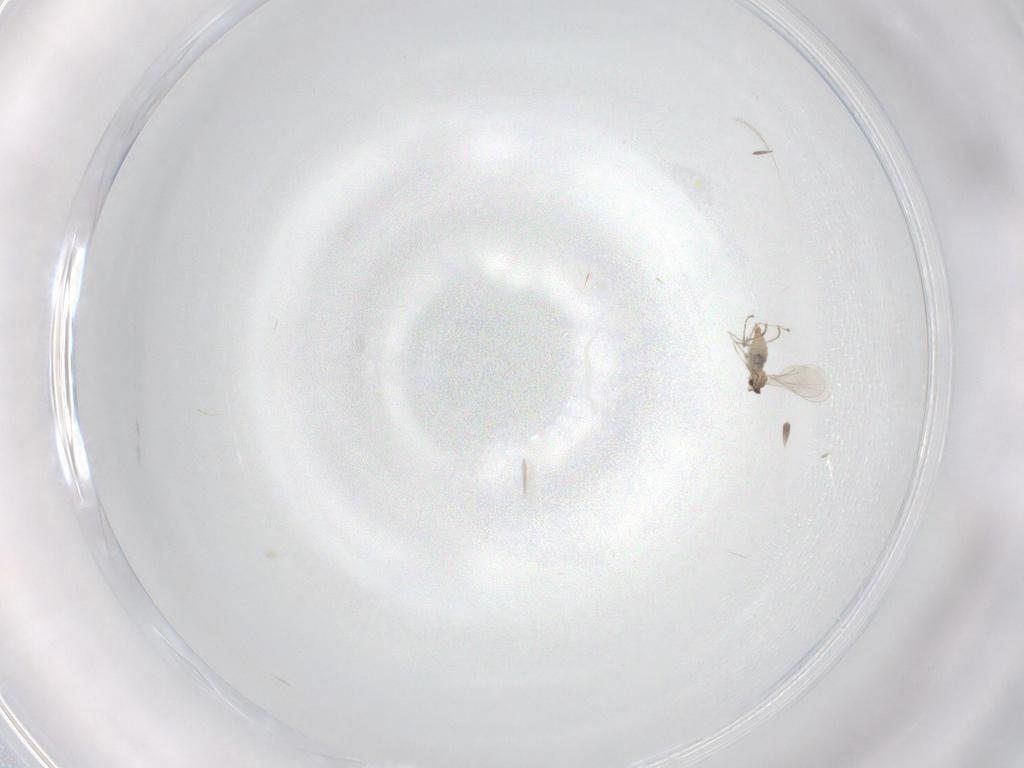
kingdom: Animalia
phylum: Arthropoda
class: Insecta
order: Diptera
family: Cecidomyiidae
